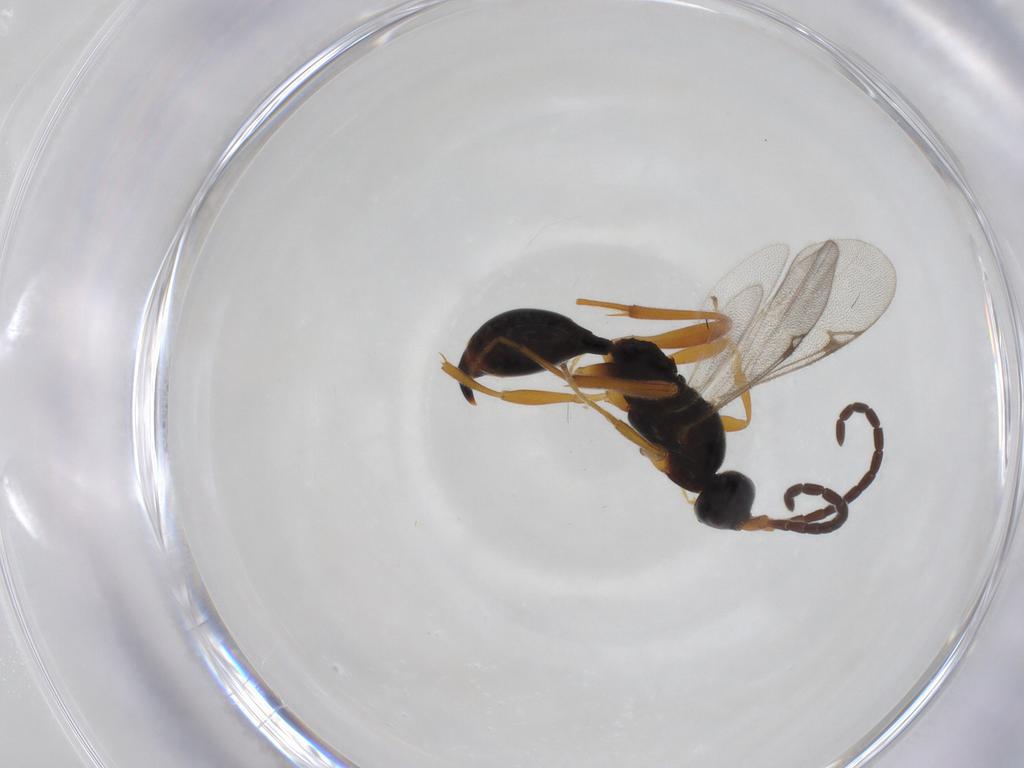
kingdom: Animalia
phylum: Arthropoda
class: Insecta
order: Hymenoptera
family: Proctotrupidae
